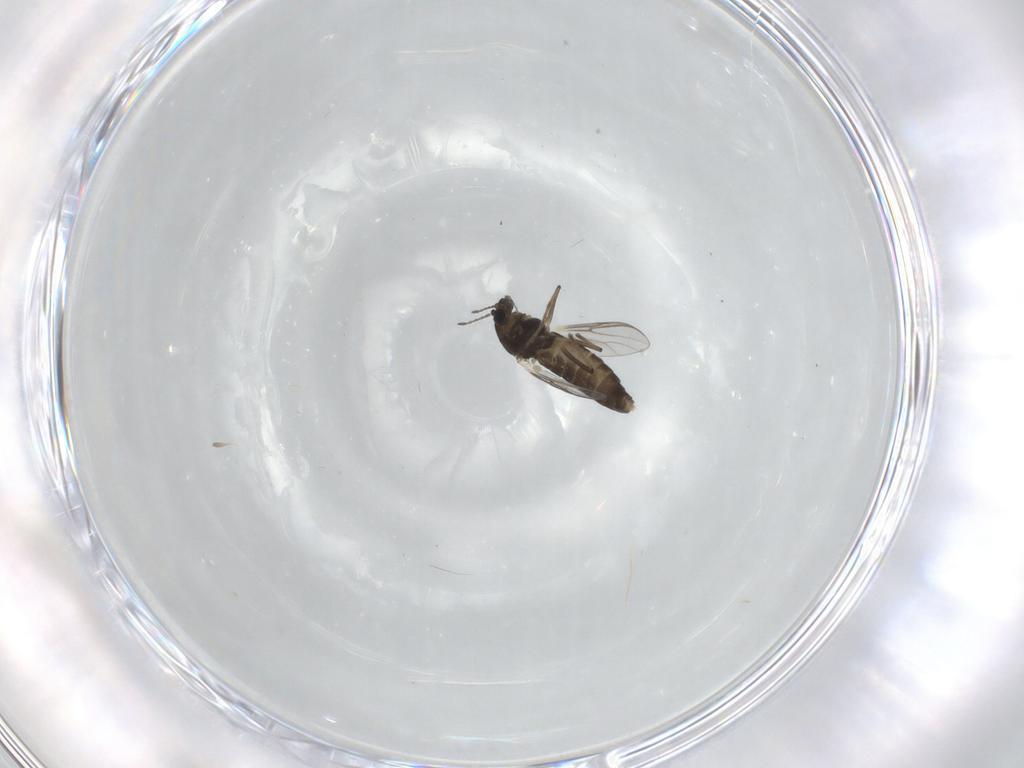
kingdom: Animalia
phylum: Arthropoda
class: Insecta
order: Diptera
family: Chironomidae
